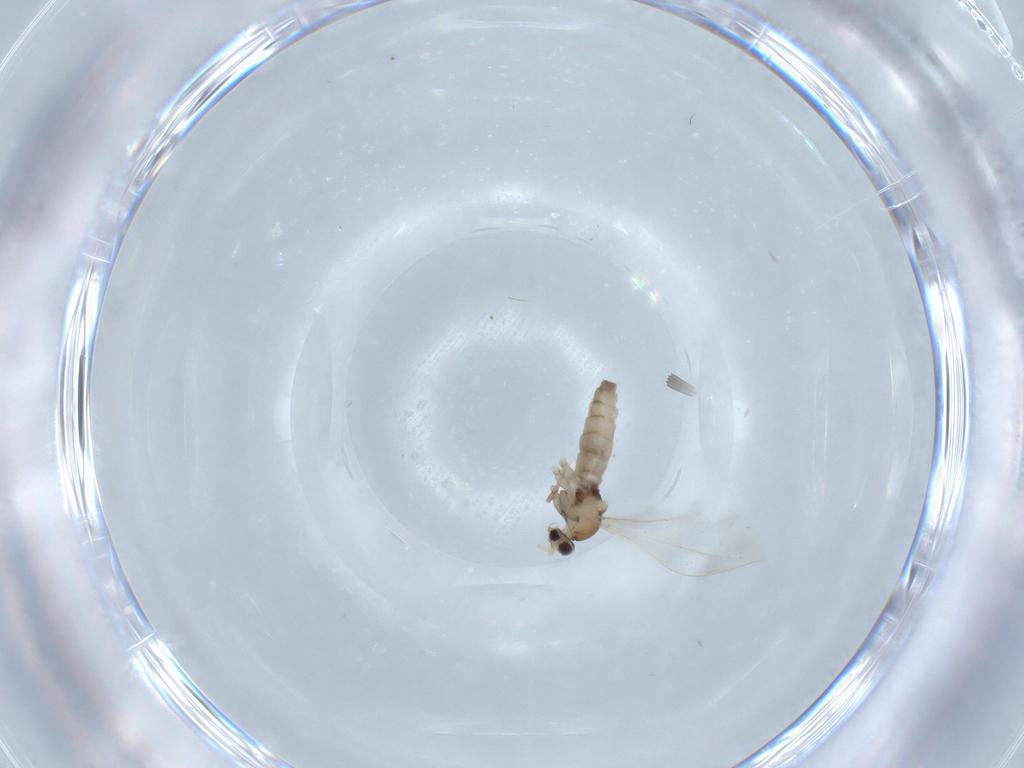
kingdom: Animalia
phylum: Arthropoda
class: Insecta
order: Diptera
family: Cecidomyiidae
